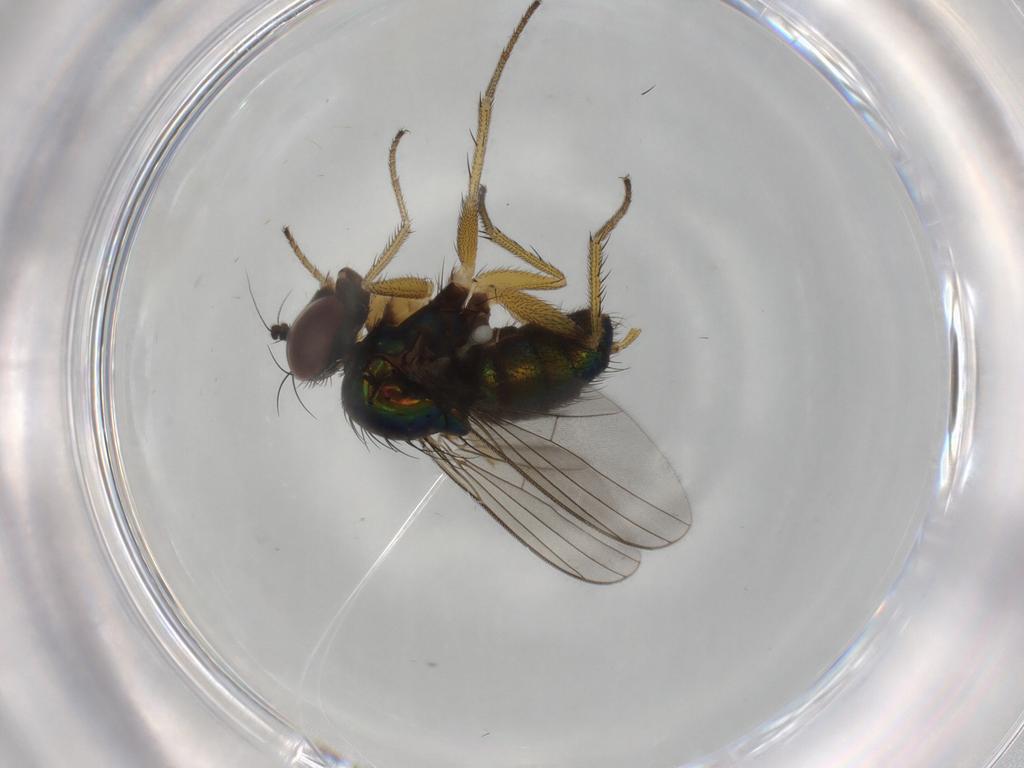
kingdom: Animalia
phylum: Arthropoda
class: Insecta
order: Diptera
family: Dolichopodidae
